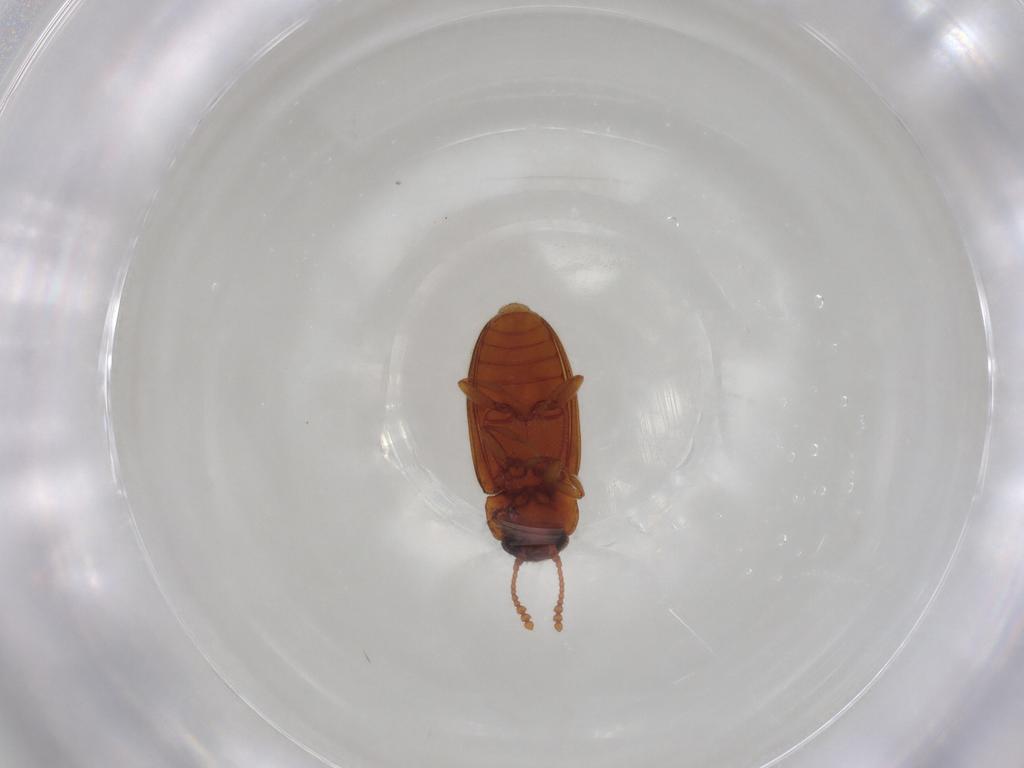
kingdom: Animalia
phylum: Arthropoda
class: Insecta
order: Coleoptera
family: Erotylidae
